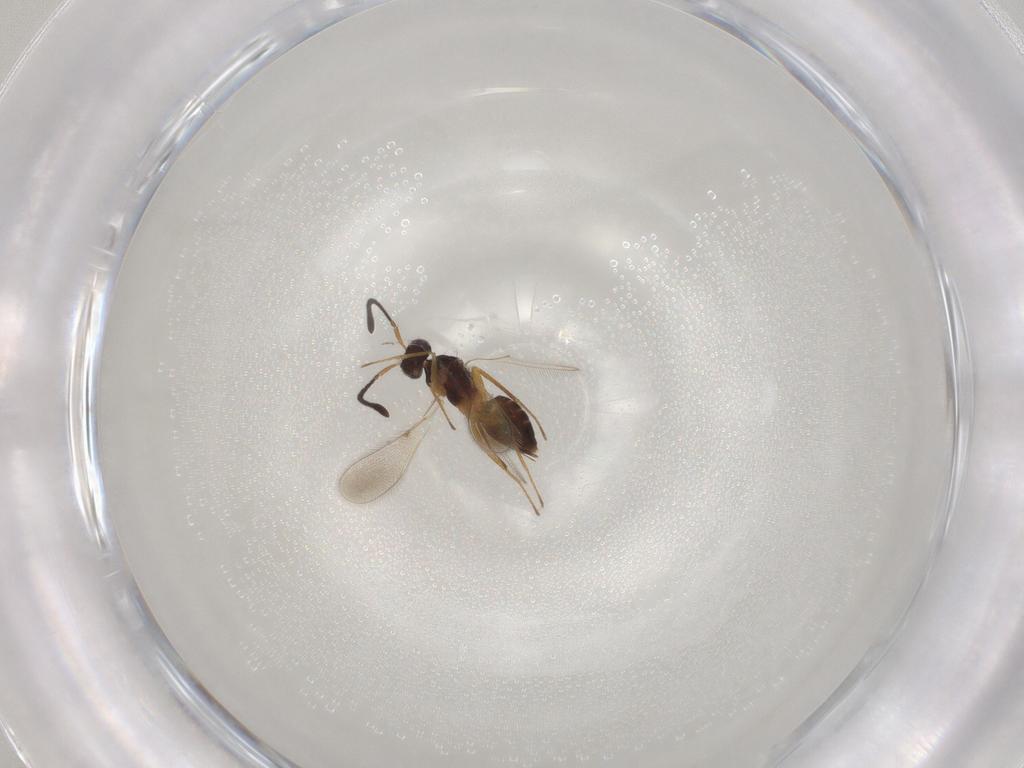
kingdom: Animalia
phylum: Arthropoda
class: Insecta
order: Hymenoptera
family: Mymaridae
